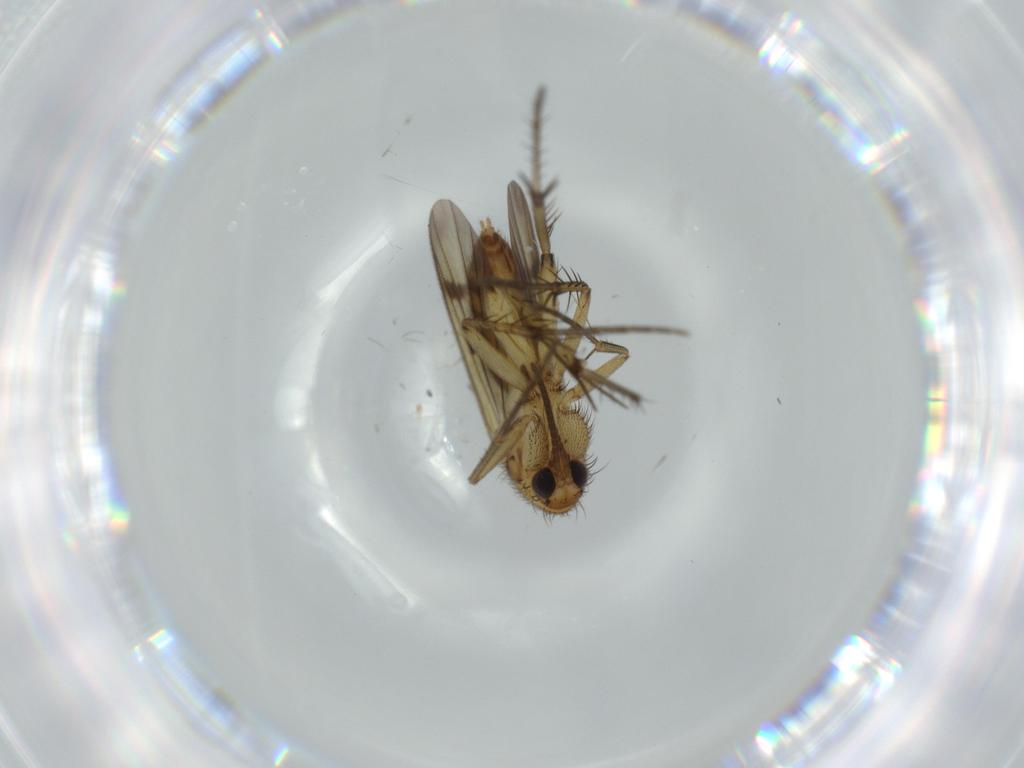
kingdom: Animalia
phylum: Arthropoda
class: Insecta
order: Diptera
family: Mycetophilidae
